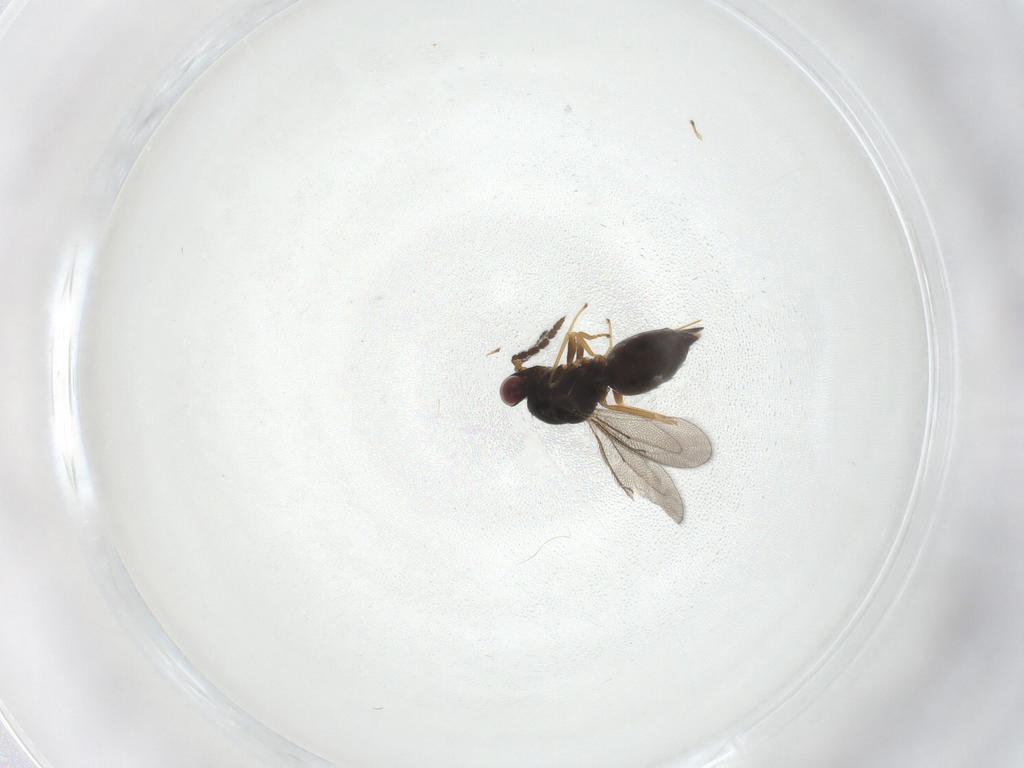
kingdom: Animalia
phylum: Arthropoda
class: Insecta
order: Hymenoptera
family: Eulophidae
